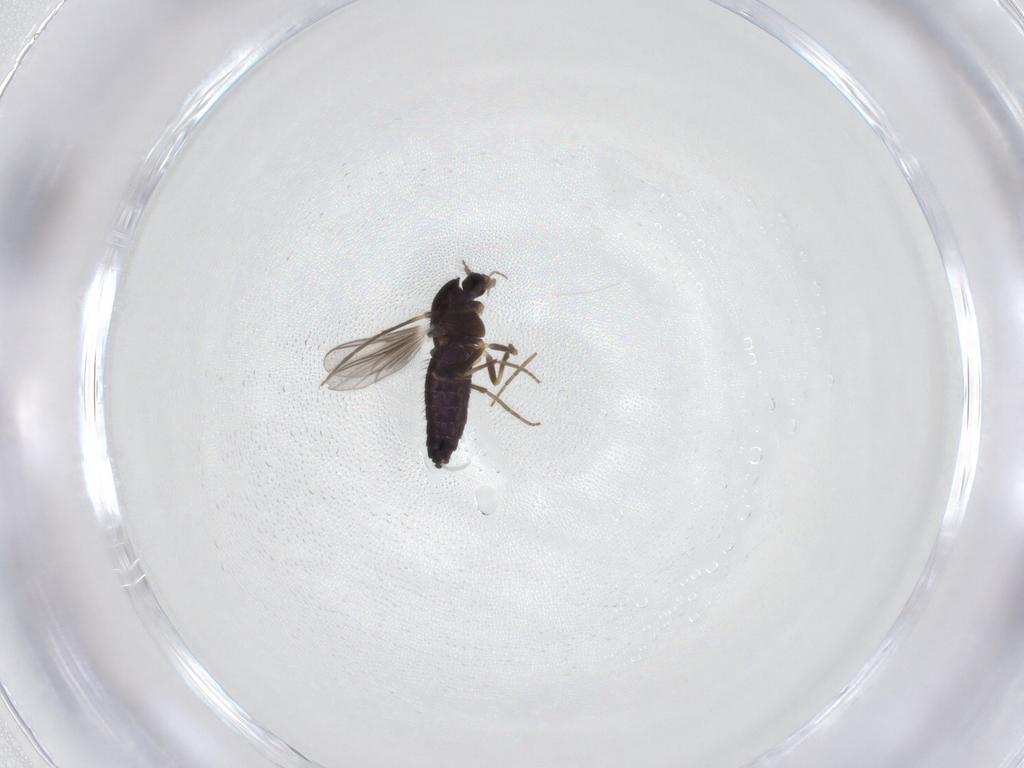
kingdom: Animalia
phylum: Arthropoda
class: Insecta
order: Diptera
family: Chironomidae
